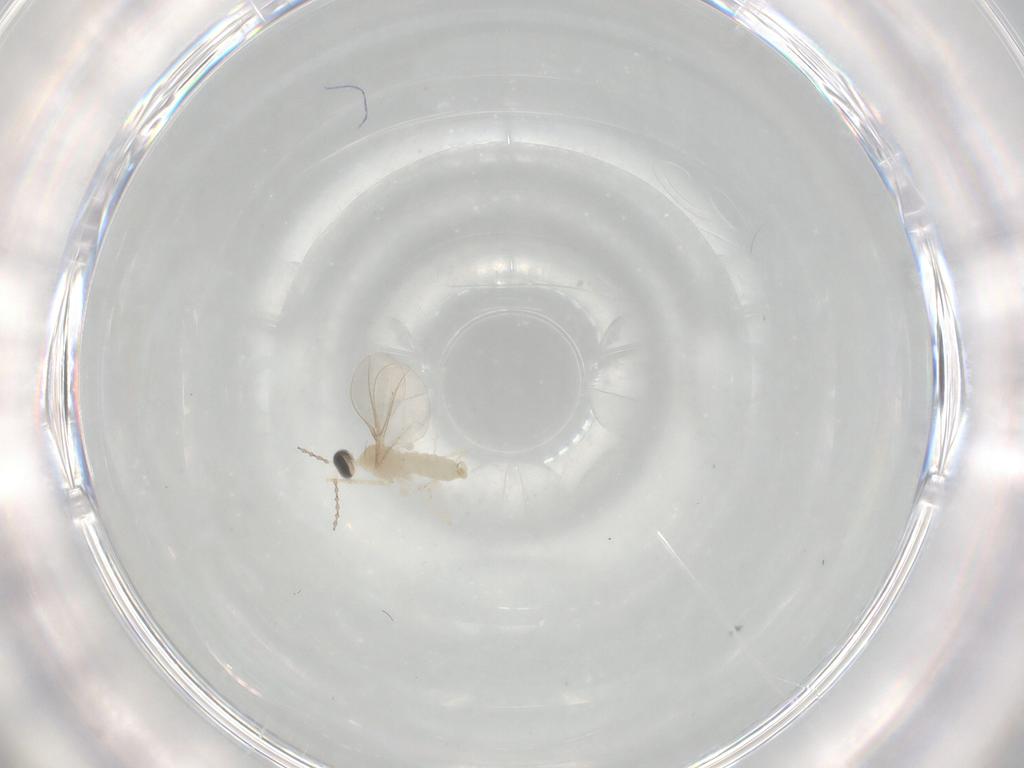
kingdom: Animalia
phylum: Arthropoda
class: Insecta
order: Diptera
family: Cecidomyiidae
